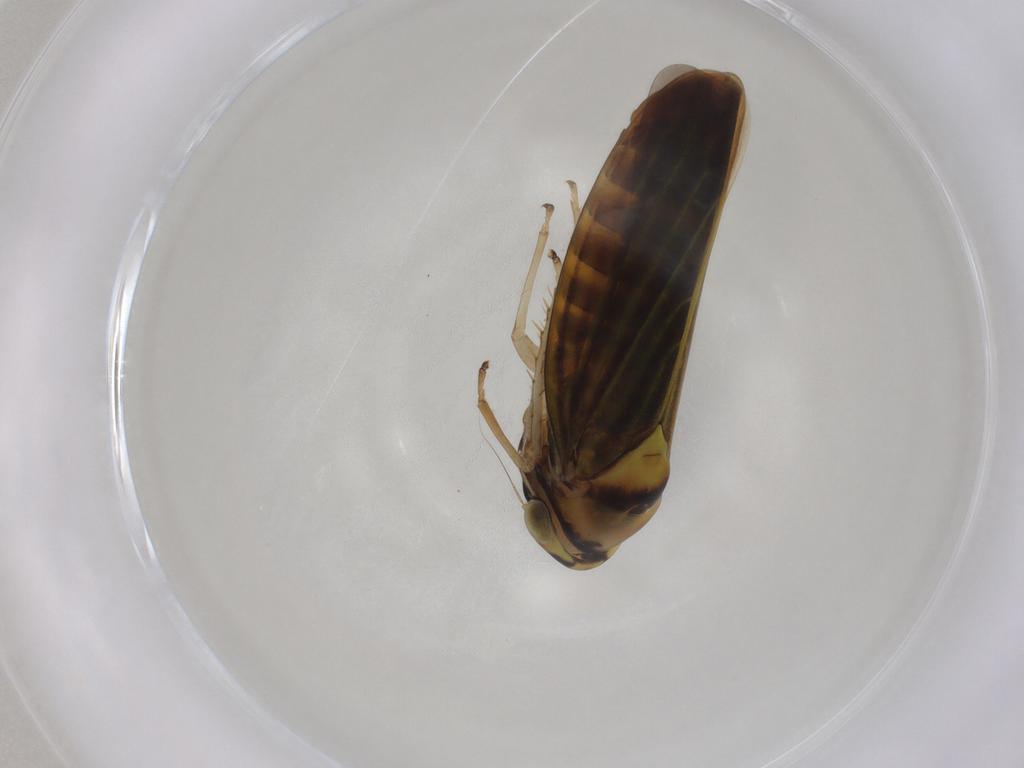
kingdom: Animalia
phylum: Arthropoda
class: Insecta
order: Hemiptera
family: Cicadellidae
